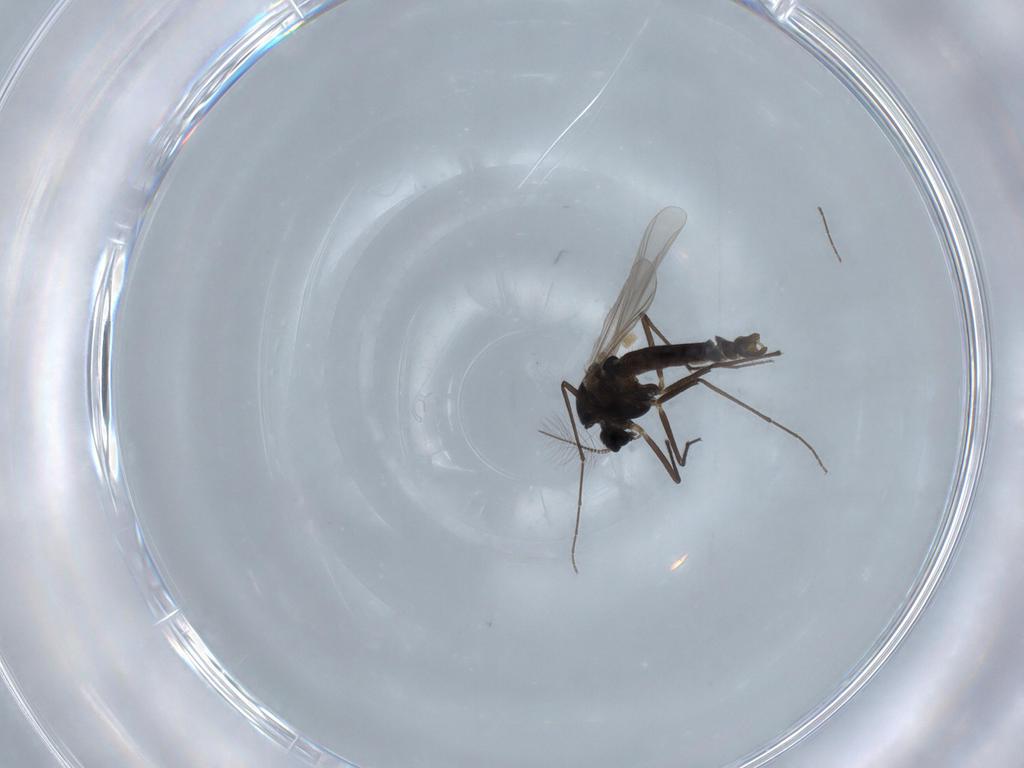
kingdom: Animalia
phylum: Arthropoda
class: Insecta
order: Diptera
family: Chironomidae
